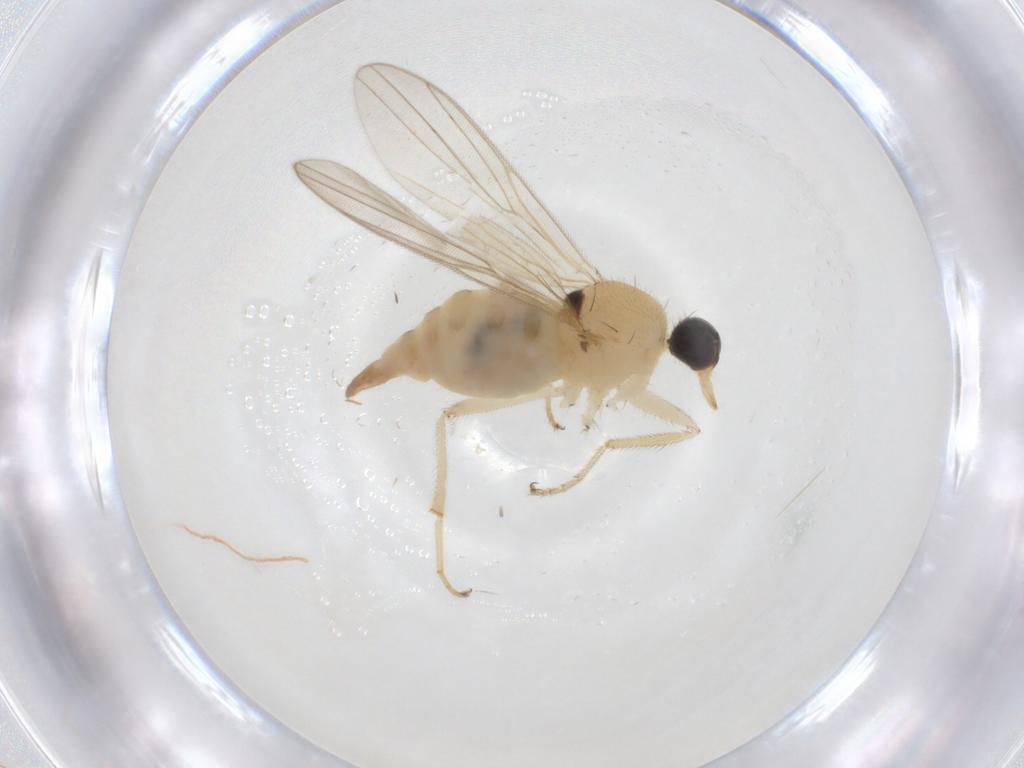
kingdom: Animalia
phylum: Arthropoda
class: Insecta
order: Diptera
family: Hybotidae
